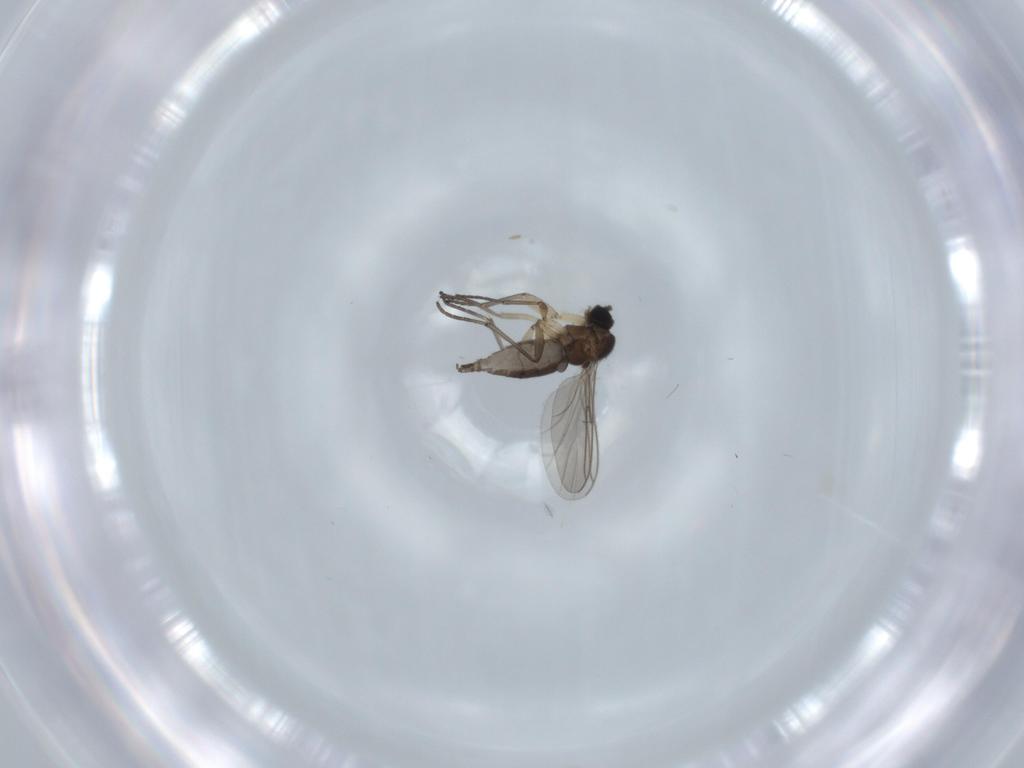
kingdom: Animalia
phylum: Arthropoda
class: Insecta
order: Diptera
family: Sciaridae
